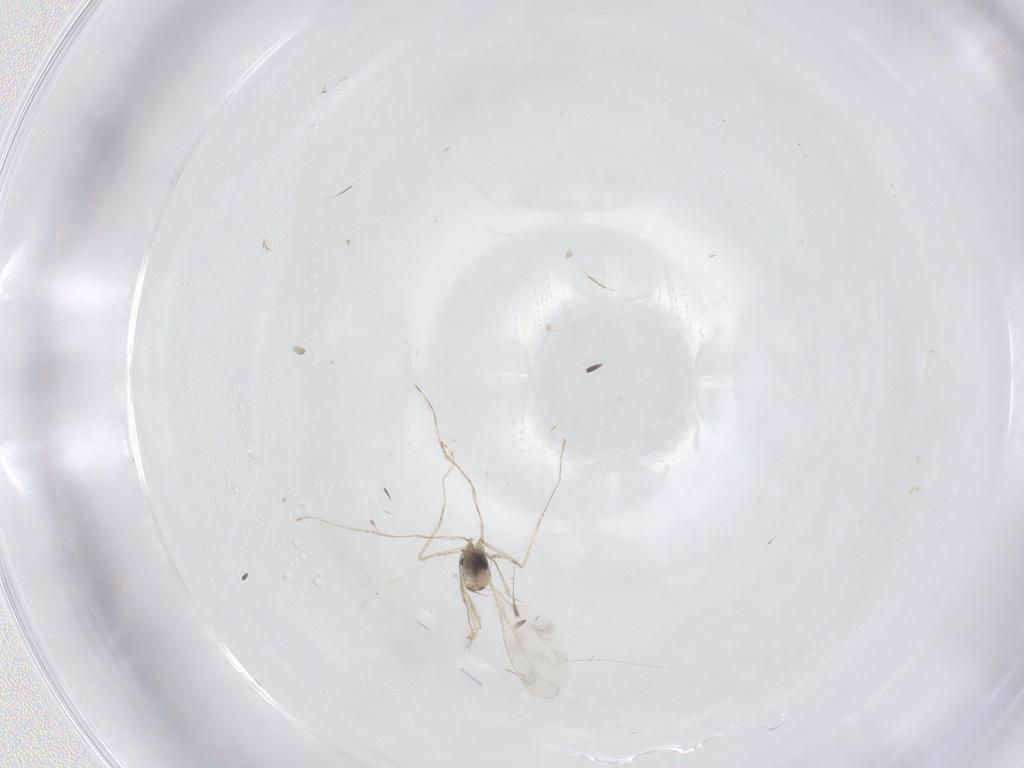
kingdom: Animalia
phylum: Arthropoda
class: Insecta
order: Diptera
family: Cecidomyiidae
